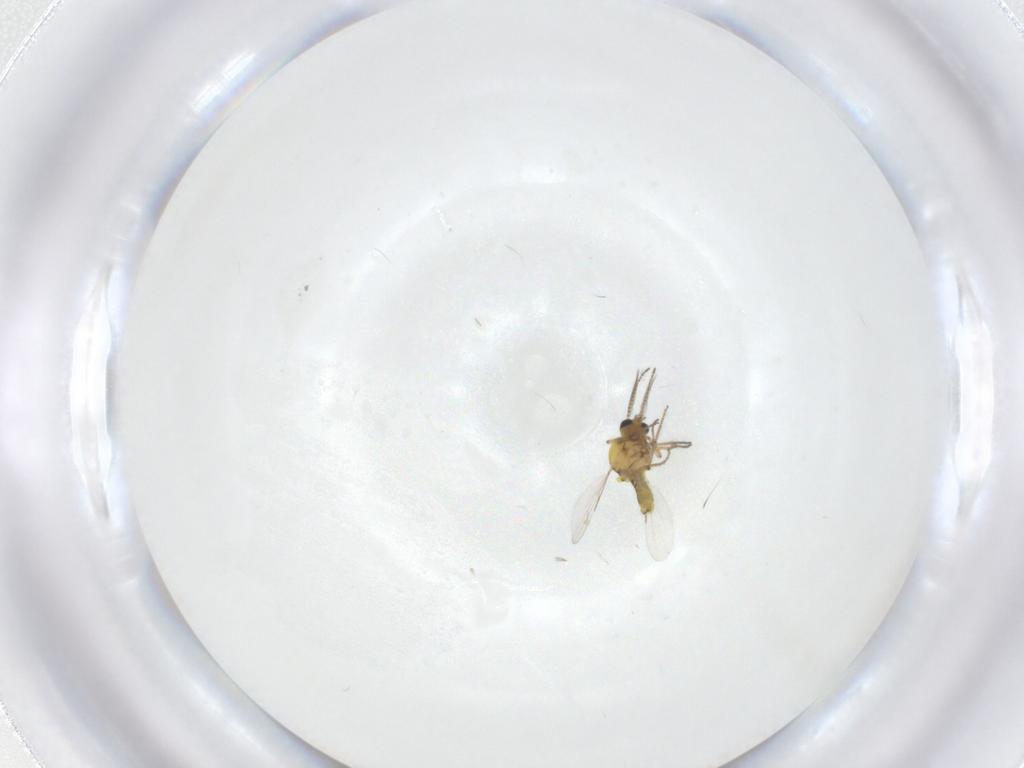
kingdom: Animalia
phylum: Arthropoda
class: Insecta
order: Diptera
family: Ceratopogonidae
